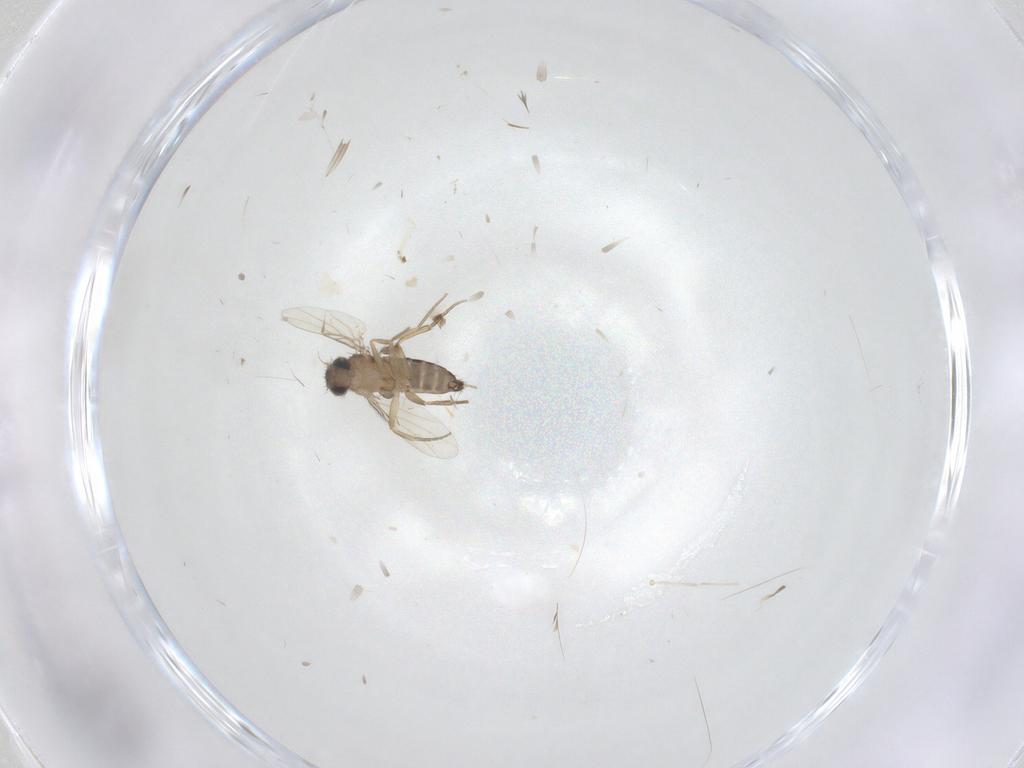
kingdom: Animalia
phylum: Arthropoda
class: Insecta
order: Diptera
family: Cecidomyiidae
